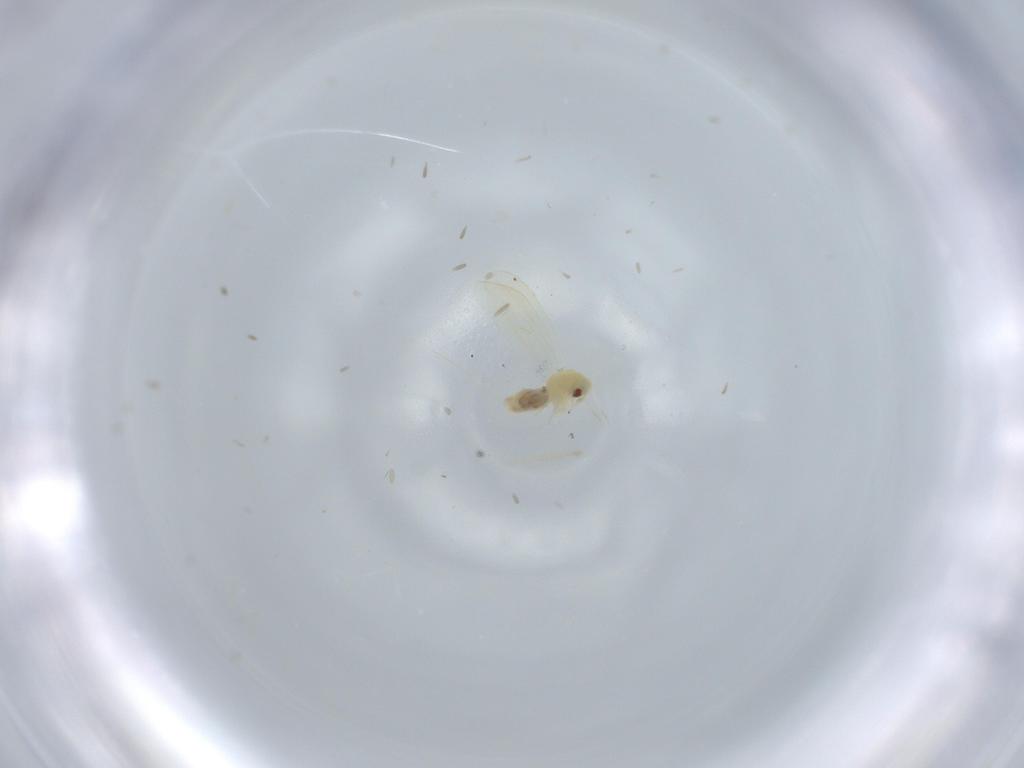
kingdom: Animalia
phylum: Arthropoda
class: Insecta
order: Hemiptera
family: Aleyrodidae
